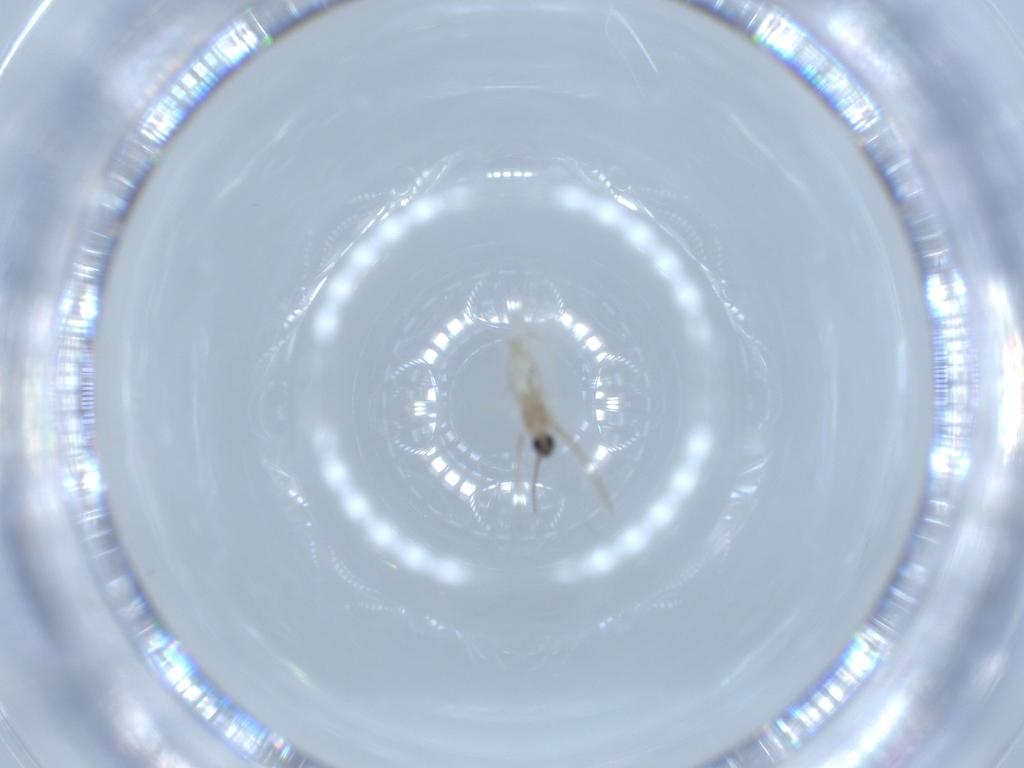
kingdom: Animalia
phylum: Arthropoda
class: Insecta
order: Diptera
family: Cecidomyiidae
